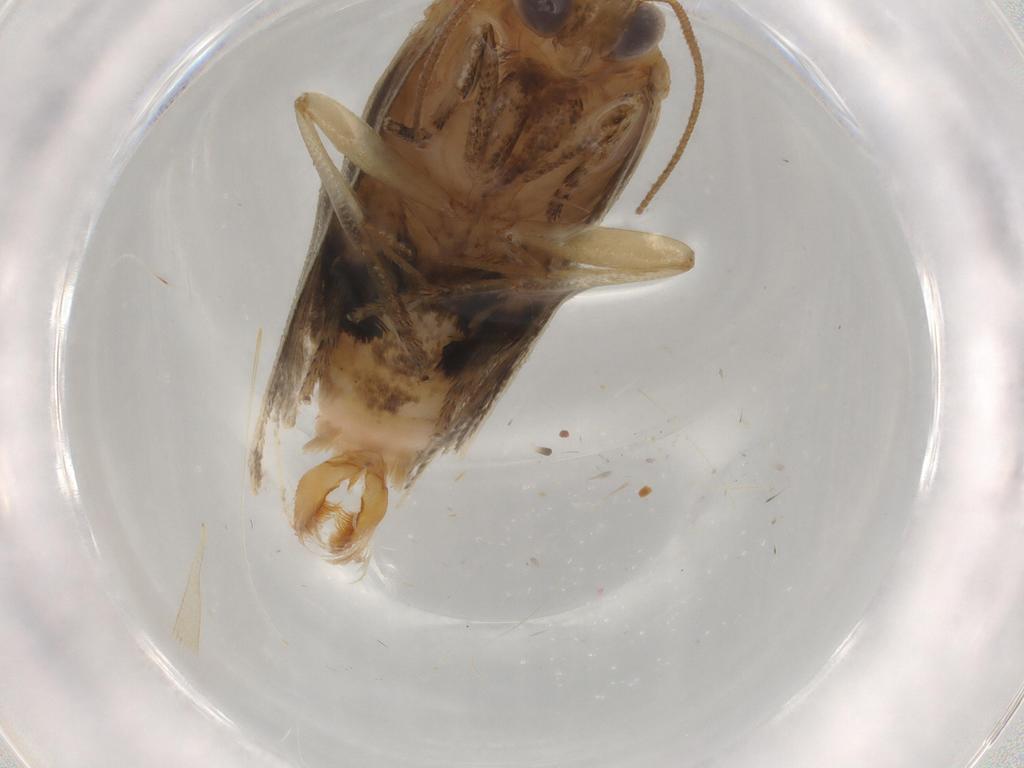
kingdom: Animalia
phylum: Arthropoda
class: Insecta
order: Lepidoptera
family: Tortricidae
